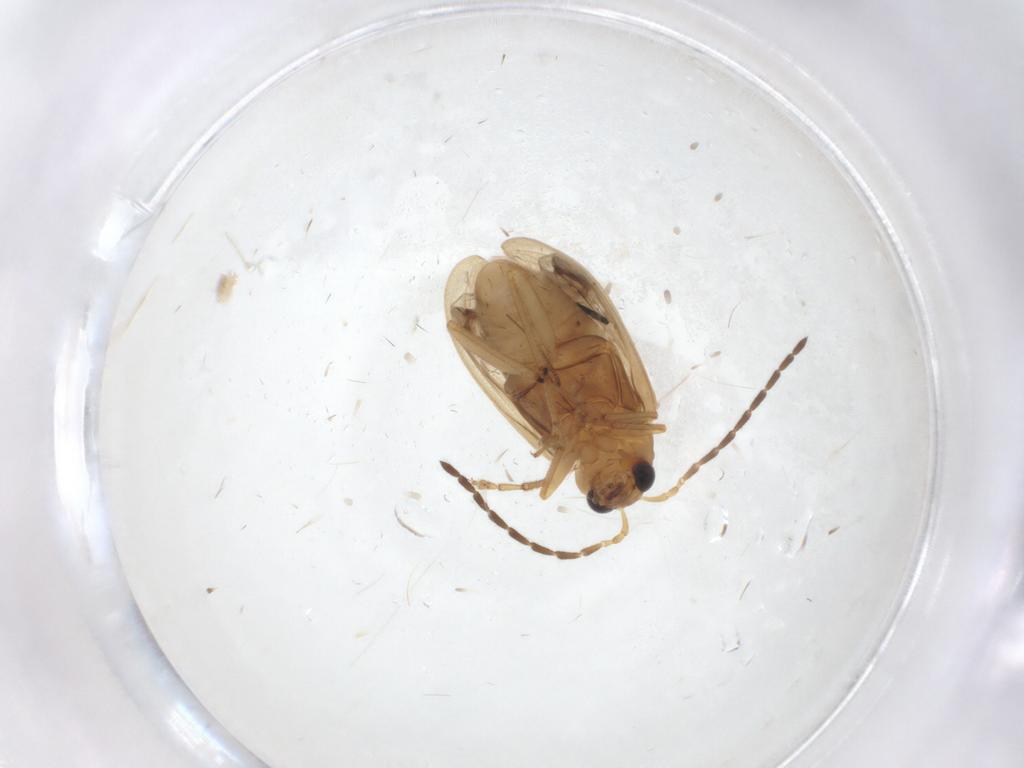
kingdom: Animalia
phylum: Arthropoda
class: Insecta
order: Coleoptera
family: Chrysomelidae
